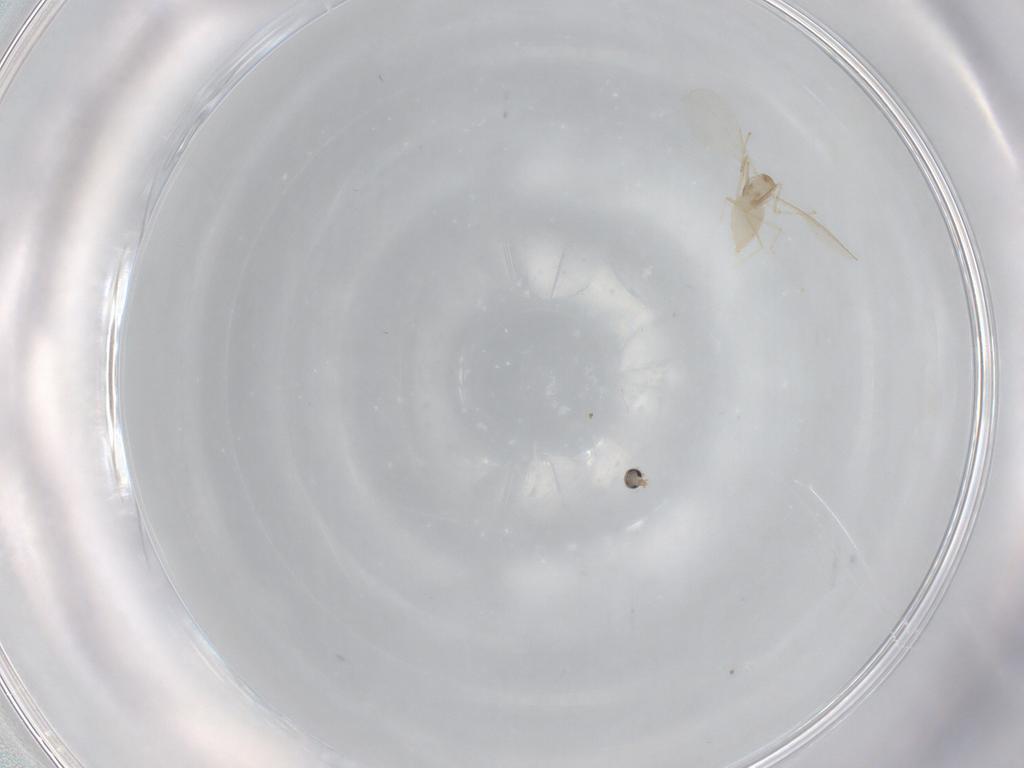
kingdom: Animalia
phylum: Arthropoda
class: Insecta
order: Diptera
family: Cecidomyiidae
